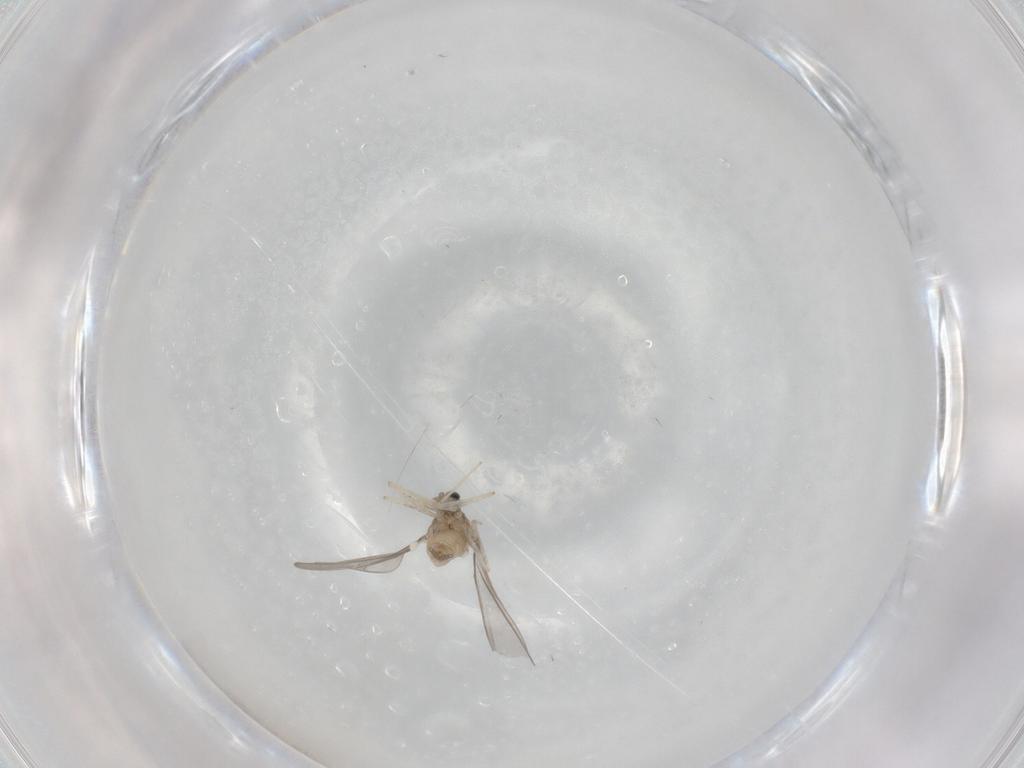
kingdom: Animalia
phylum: Arthropoda
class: Insecta
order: Diptera
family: Cecidomyiidae
